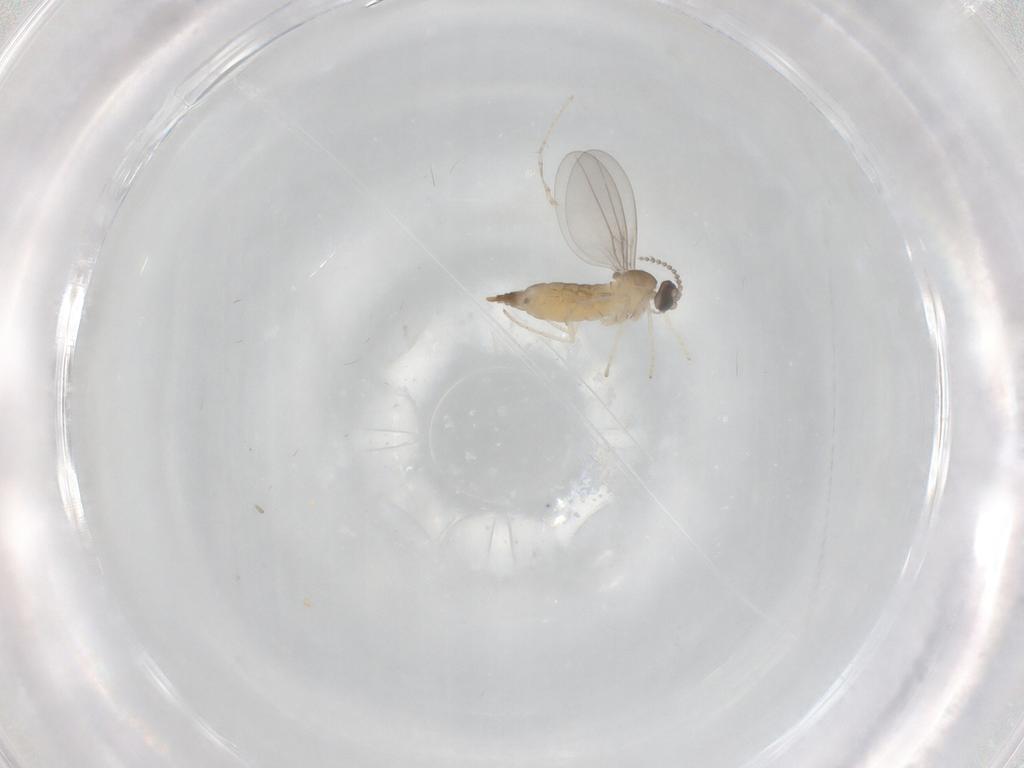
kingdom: Animalia
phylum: Arthropoda
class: Insecta
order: Diptera
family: Cecidomyiidae
